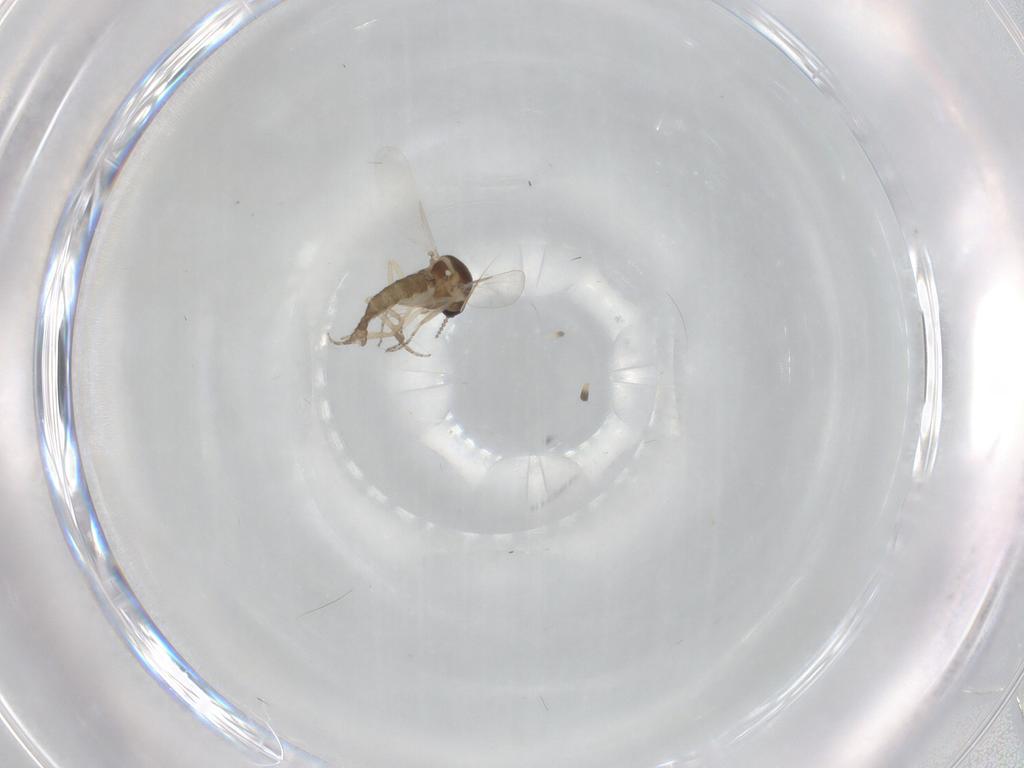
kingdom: Animalia
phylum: Arthropoda
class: Insecta
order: Diptera
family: Ceratopogonidae
